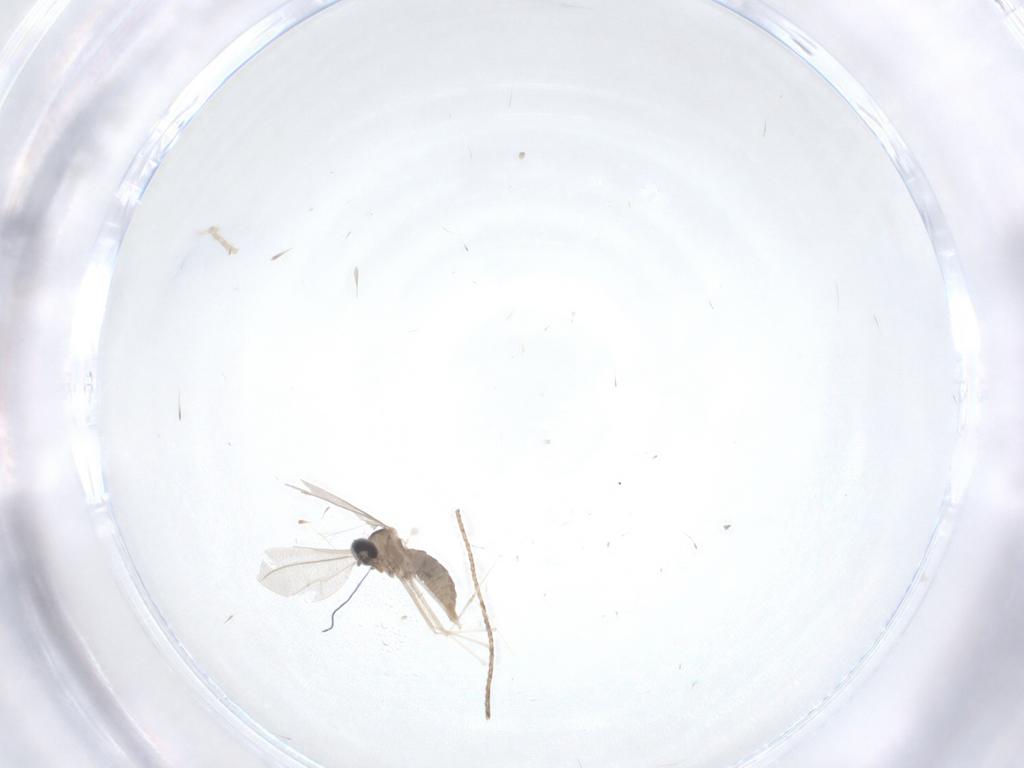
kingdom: Animalia
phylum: Arthropoda
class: Insecta
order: Diptera
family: Cecidomyiidae
